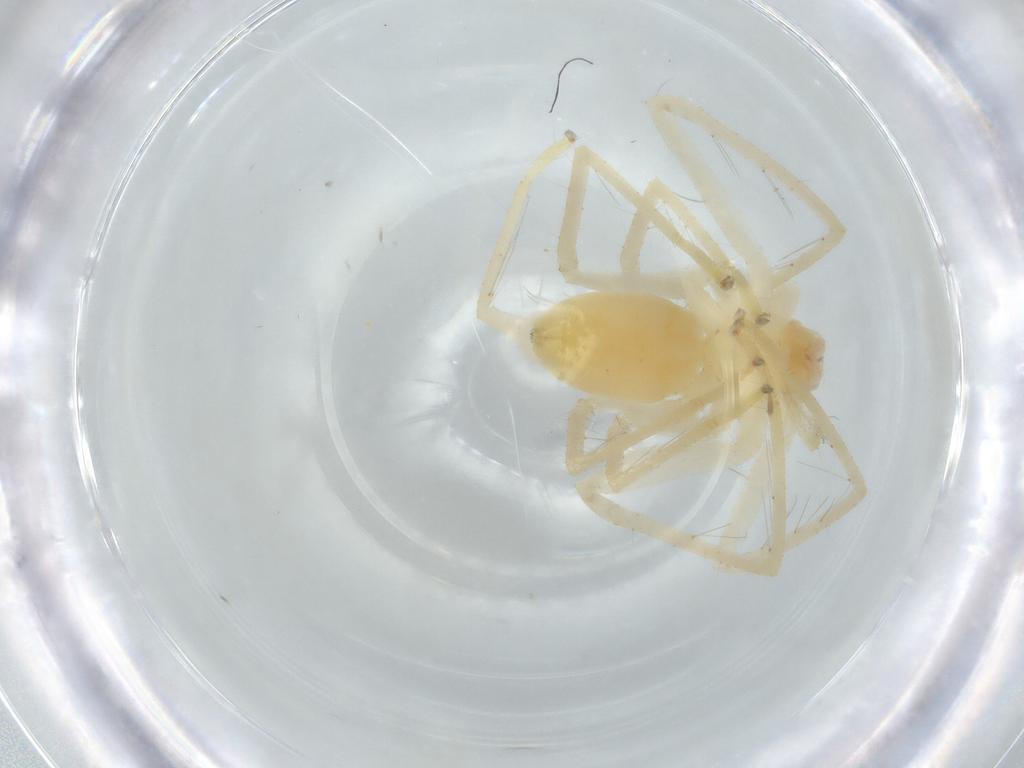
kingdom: Animalia
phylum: Arthropoda
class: Arachnida
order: Araneae
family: Sparassidae
